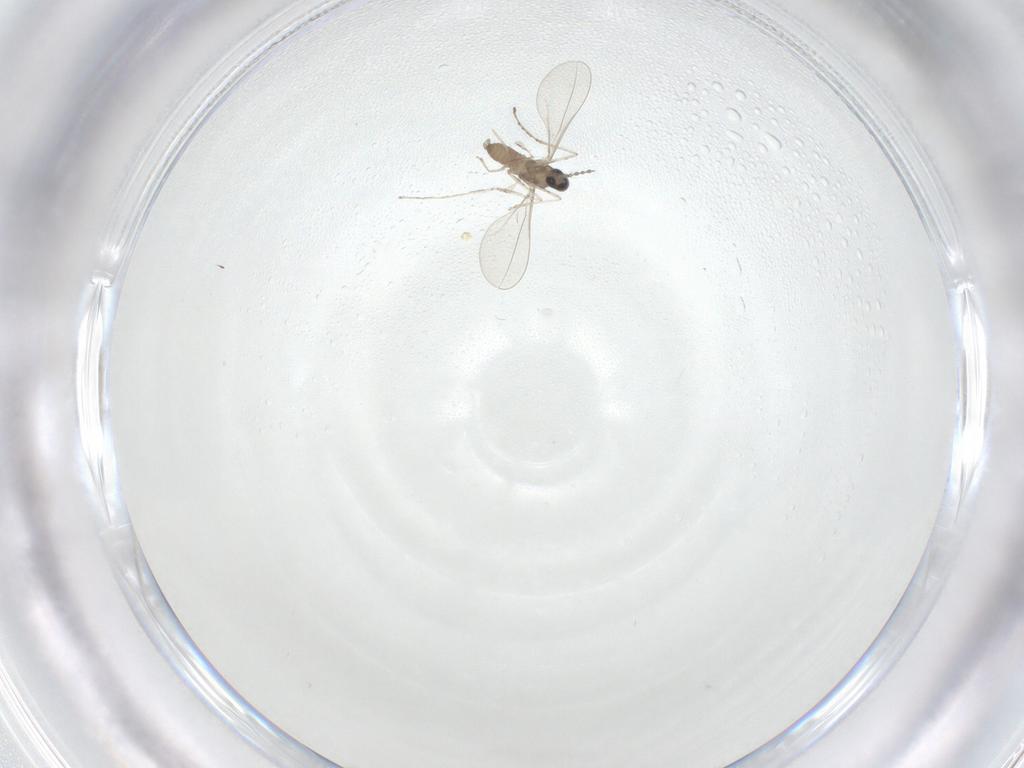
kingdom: Animalia
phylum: Arthropoda
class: Insecta
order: Diptera
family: Cecidomyiidae
